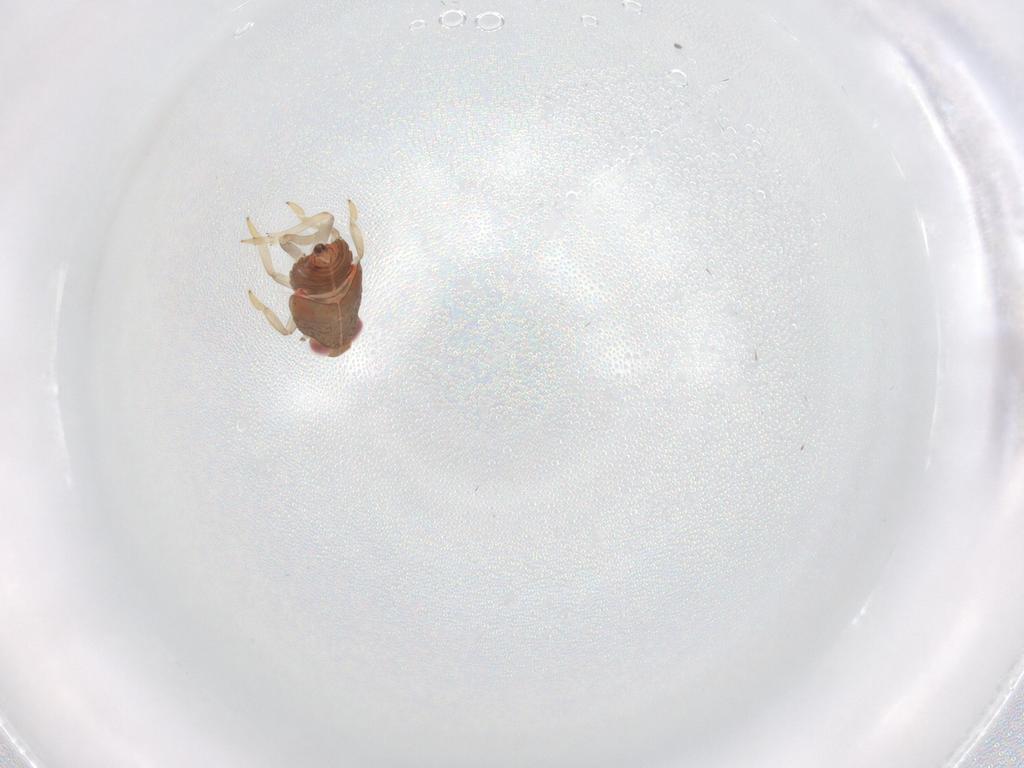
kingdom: Animalia
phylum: Arthropoda
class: Insecta
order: Hemiptera
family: Issidae
